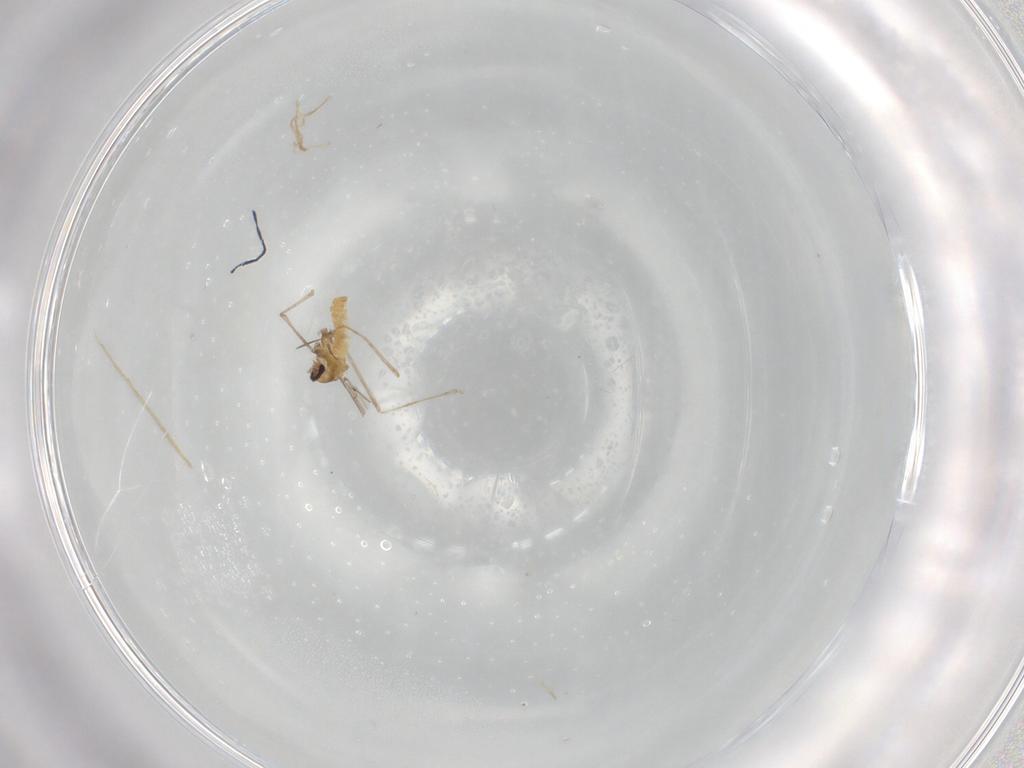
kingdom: Animalia
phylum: Arthropoda
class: Insecta
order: Diptera
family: Cecidomyiidae
